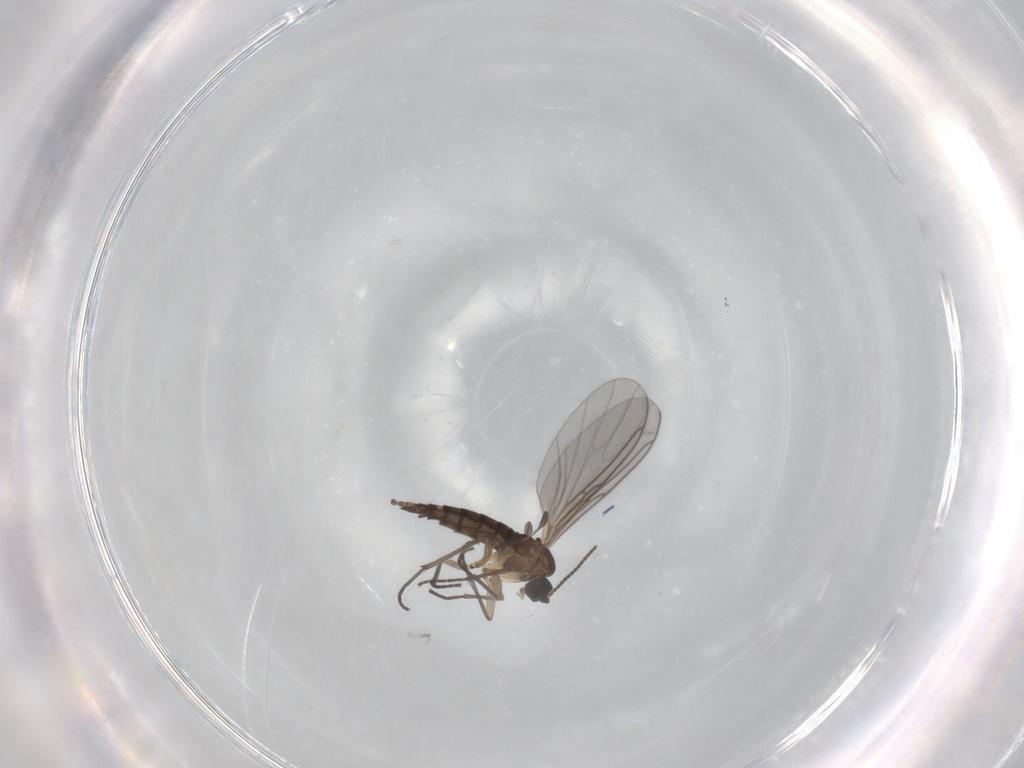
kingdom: Animalia
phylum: Arthropoda
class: Insecta
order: Diptera
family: Sciaridae
